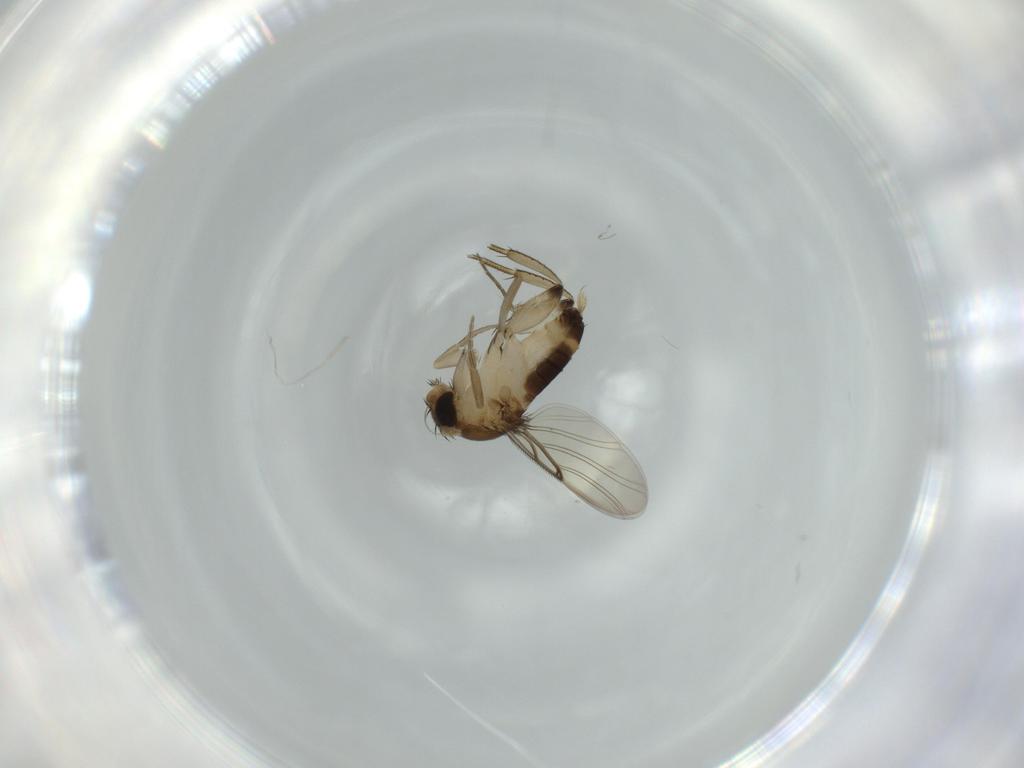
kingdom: Animalia
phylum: Arthropoda
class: Insecta
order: Diptera
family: Phoridae
